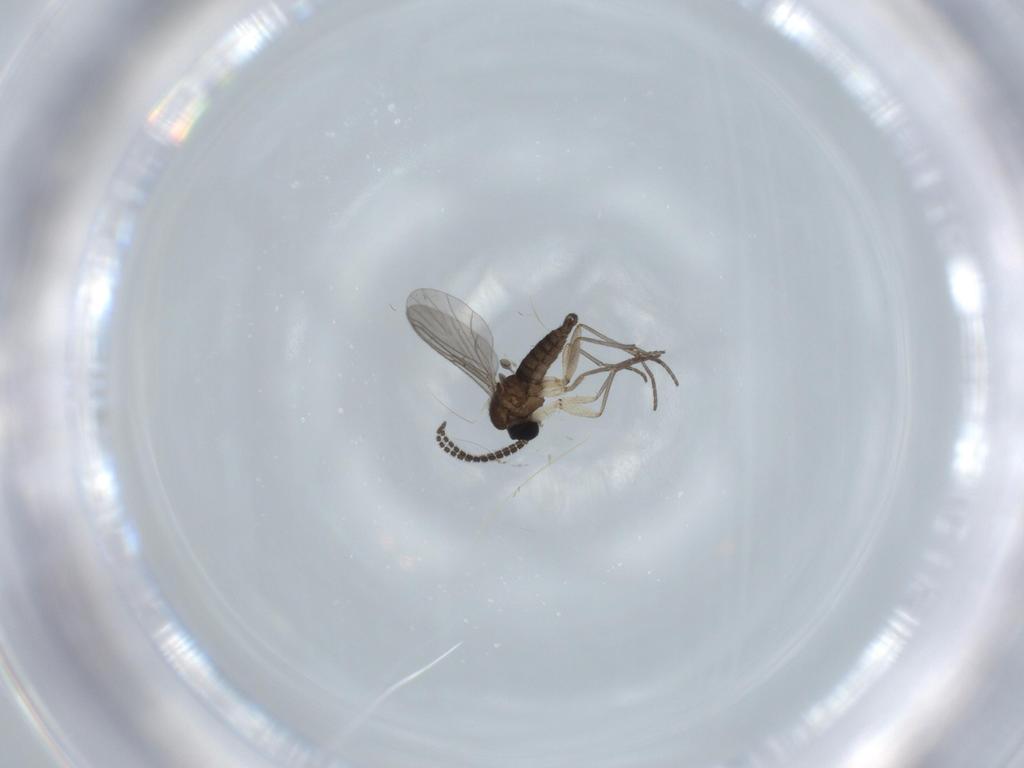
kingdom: Animalia
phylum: Arthropoda
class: Insecta
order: Diptera
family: Sciaridae
